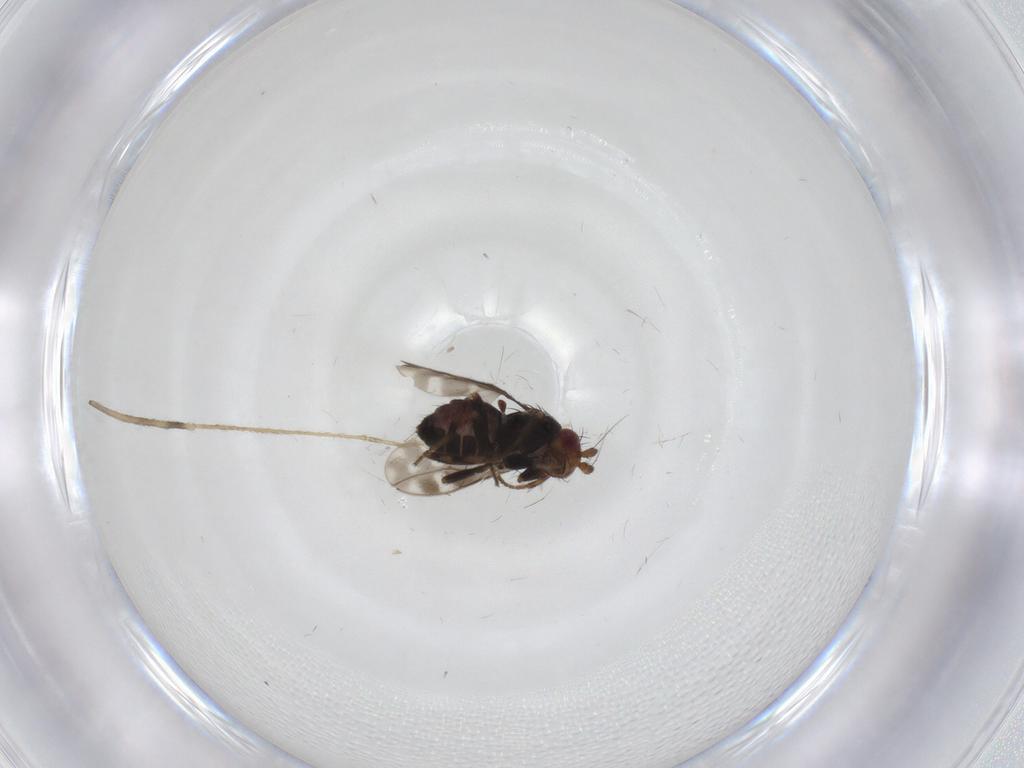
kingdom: Animalia
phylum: Arthropoda
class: Insecta
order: Diptera
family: Sphaeroceridae
